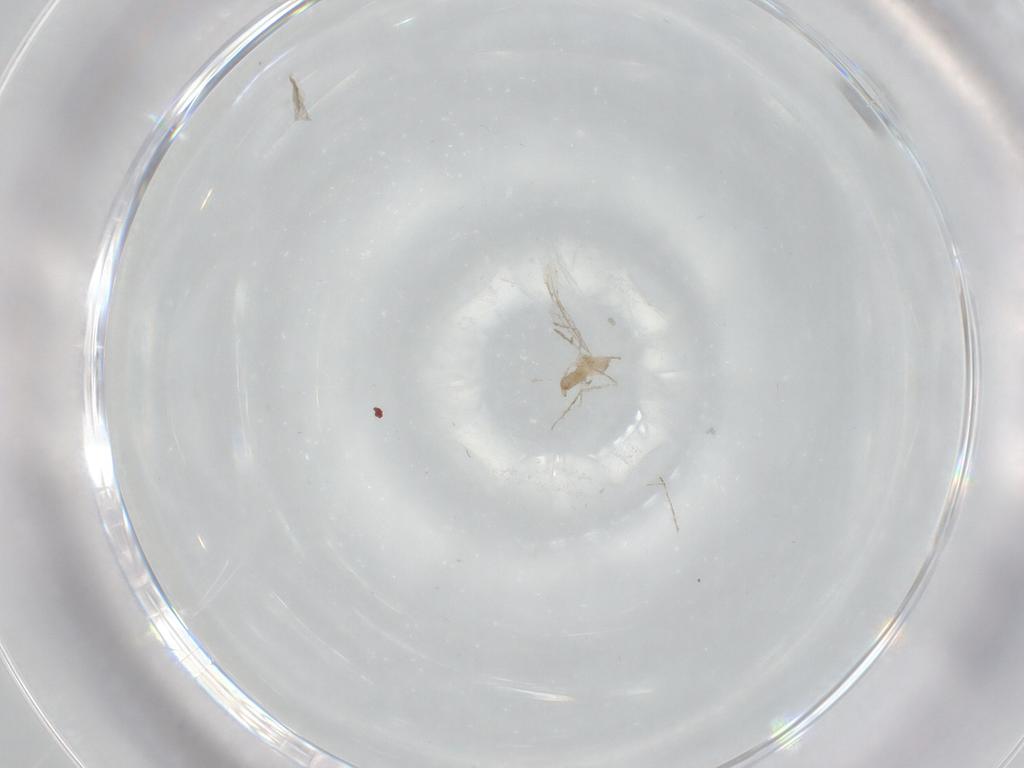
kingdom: Animalia
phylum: Arthropoda
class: Insecta
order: Diptera
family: Cecidomyiidae
